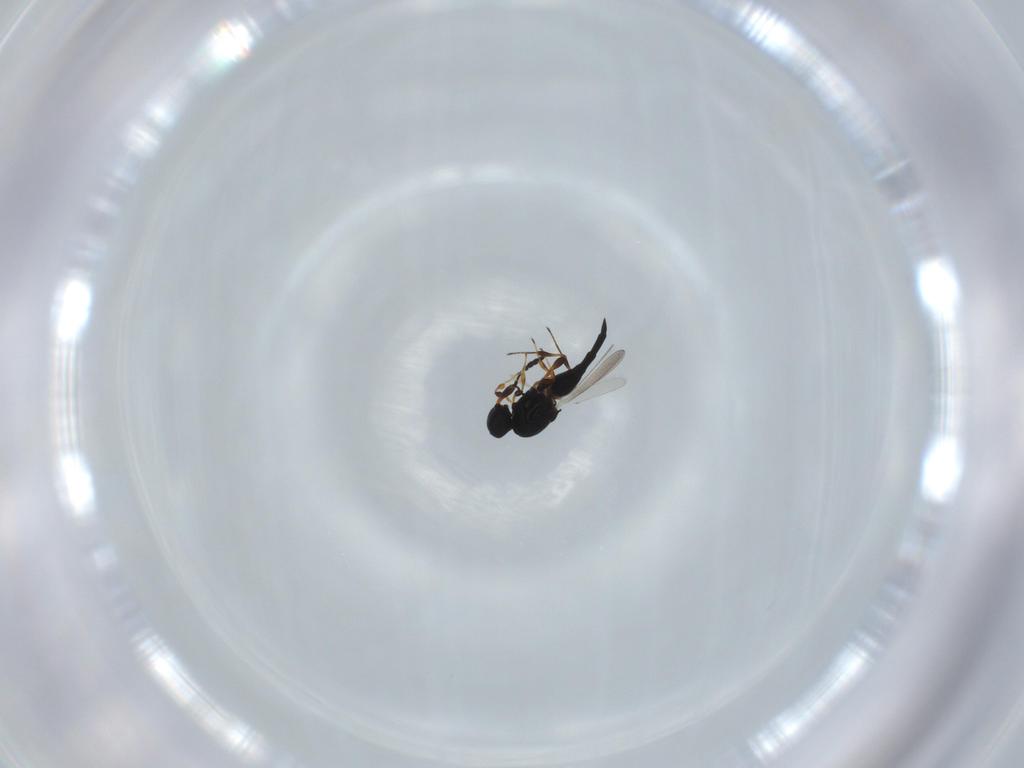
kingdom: Animalia
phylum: Arthropoda
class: Insecta
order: Hymenoptera
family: Platygastridae
